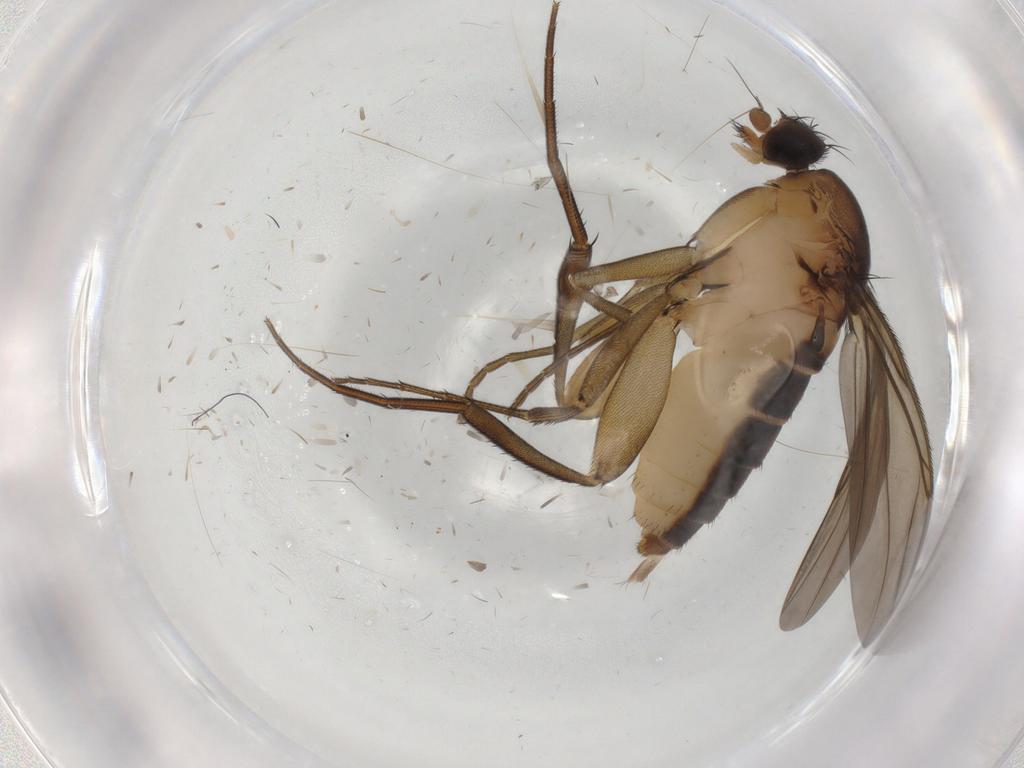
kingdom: Animalia
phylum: Arthropoda
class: Insecta
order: Diptera
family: Phoridae
